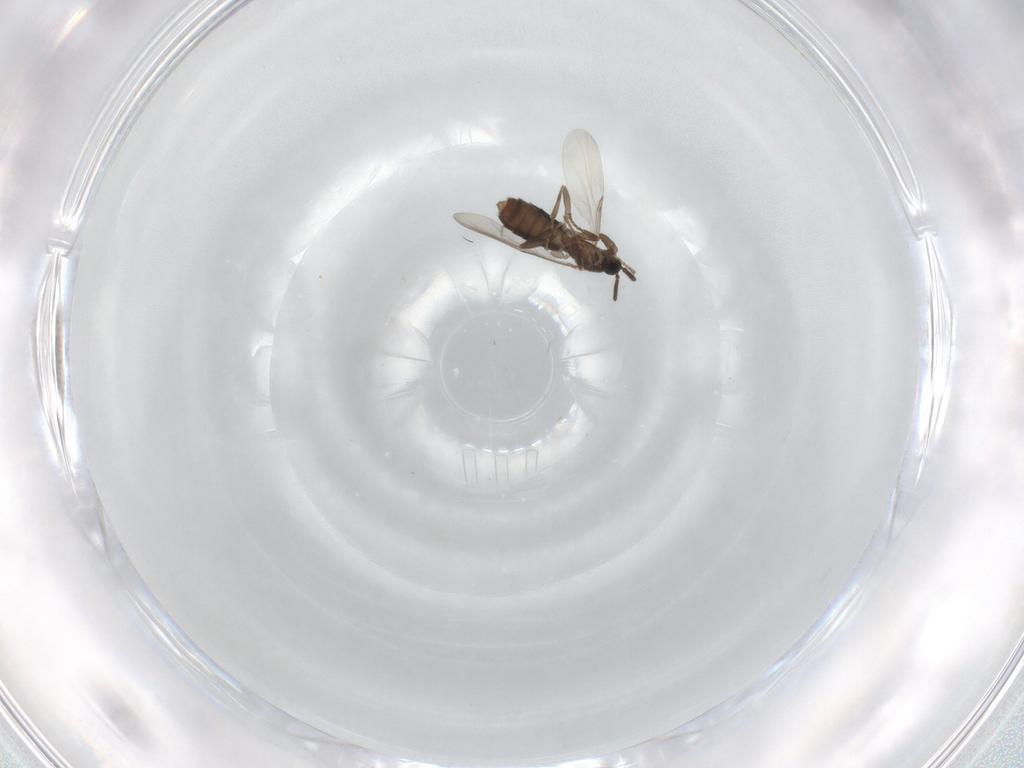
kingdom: Animalia
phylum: Arthropoda
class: Insecta
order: Diptera
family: Scatopsidae
